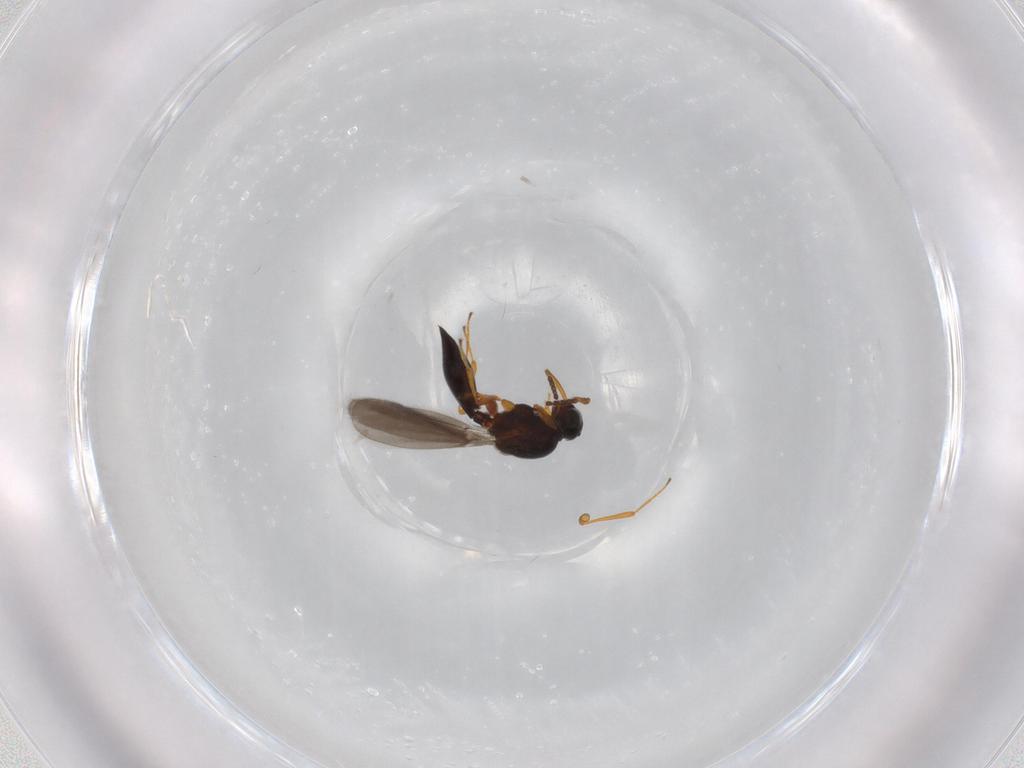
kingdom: Animalia
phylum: Arthropoda
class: Insecta
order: Hymenoptera
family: Platygastridae
